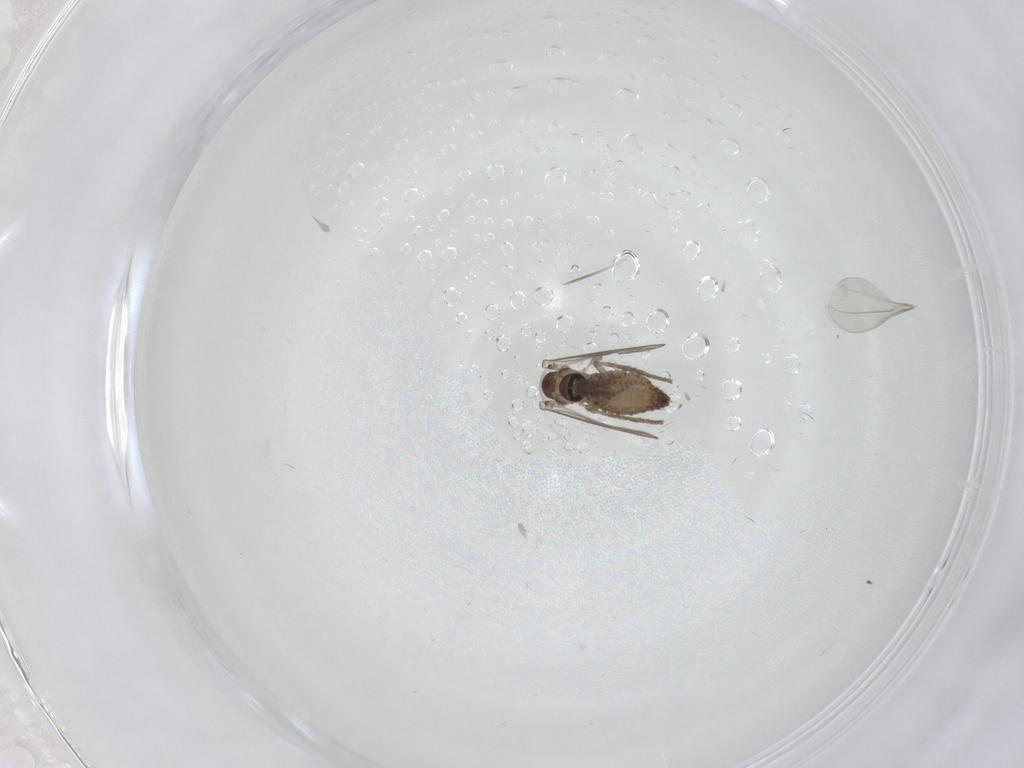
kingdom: Animalia
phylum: Arthropoda
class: Insecta
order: Diptera
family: Psychodidae
